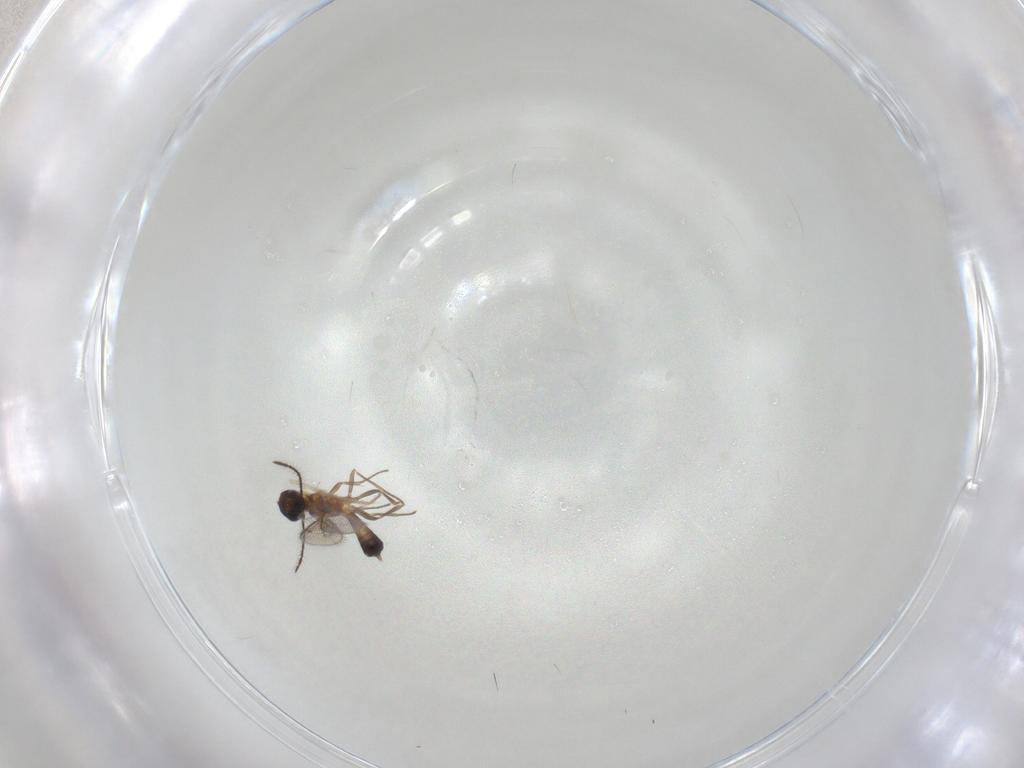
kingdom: Animalia
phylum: Arthropoda
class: Insecta
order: Hymenoptera
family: Eupelmidae
